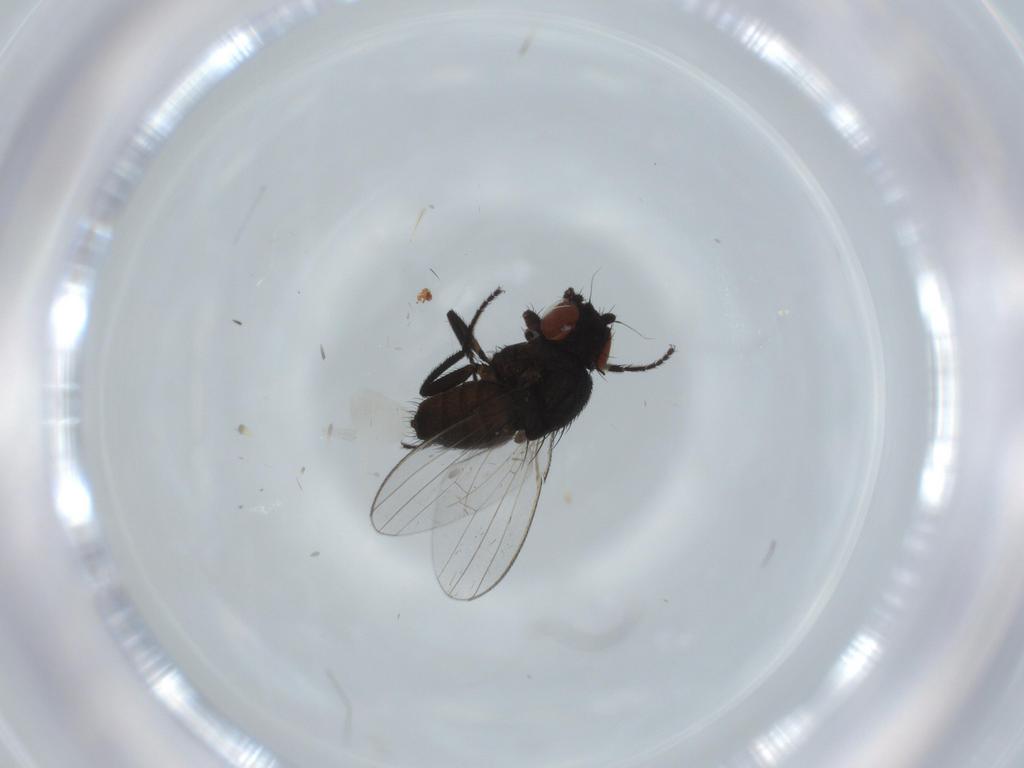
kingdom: Animalia
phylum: Arthropoda
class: Insecta
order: Diptera
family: Milichiidae
